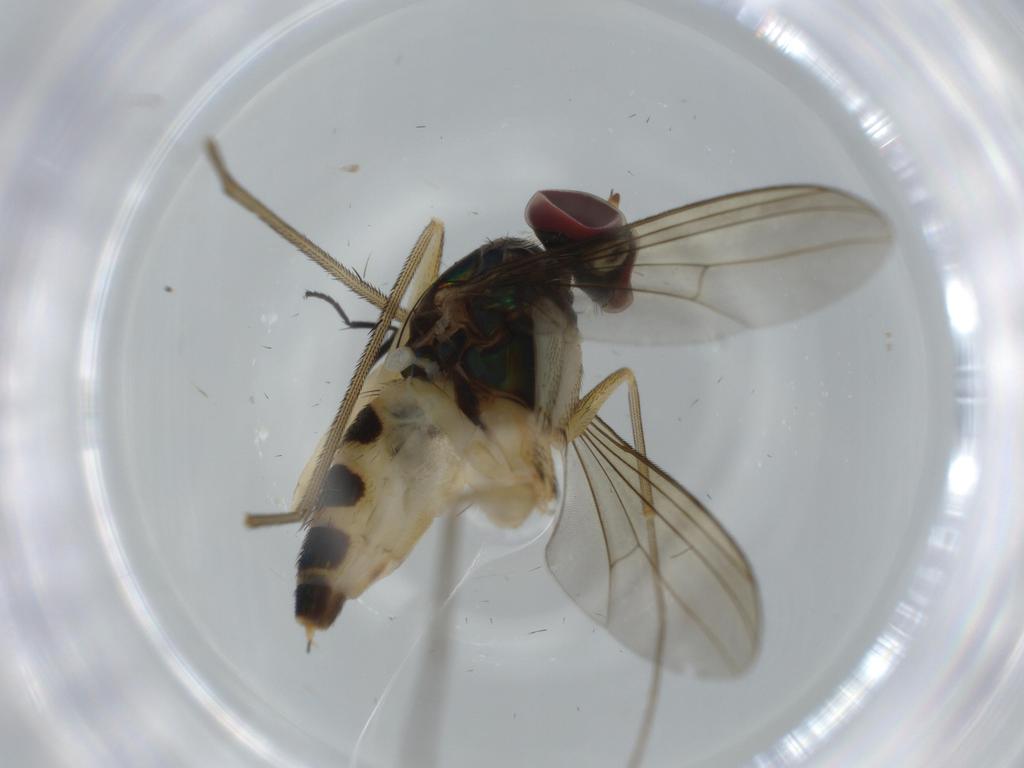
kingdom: Animalia
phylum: Arthropoda
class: Insecta
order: Diptera
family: Dolichopodidae
